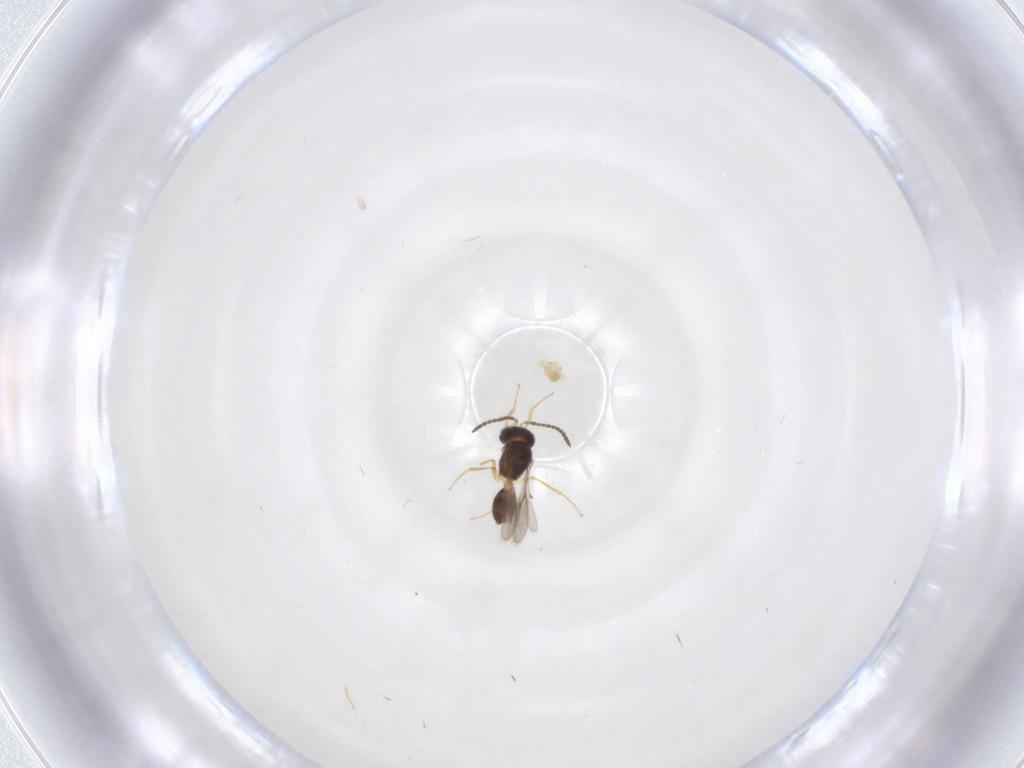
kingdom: Animalia
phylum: Arthropoda
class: Insecta
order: Hymenoptera
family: Scelionidae
